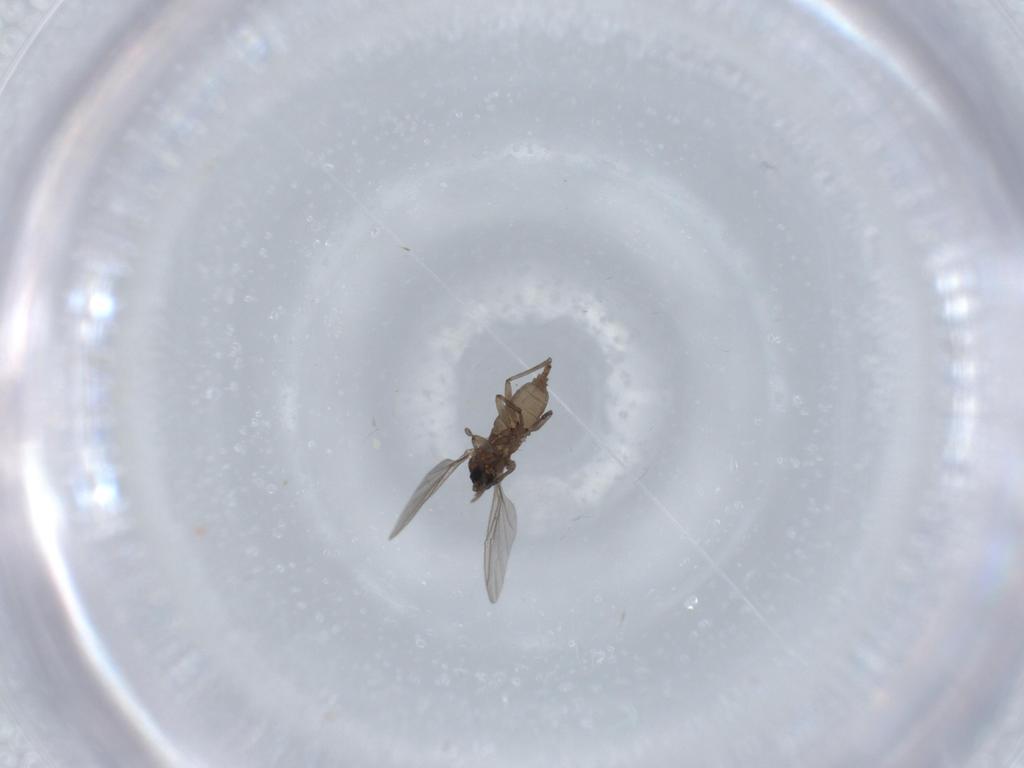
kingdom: Animalia
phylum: Arthropoda
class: Insecta
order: Diptera
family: Sciaridae
